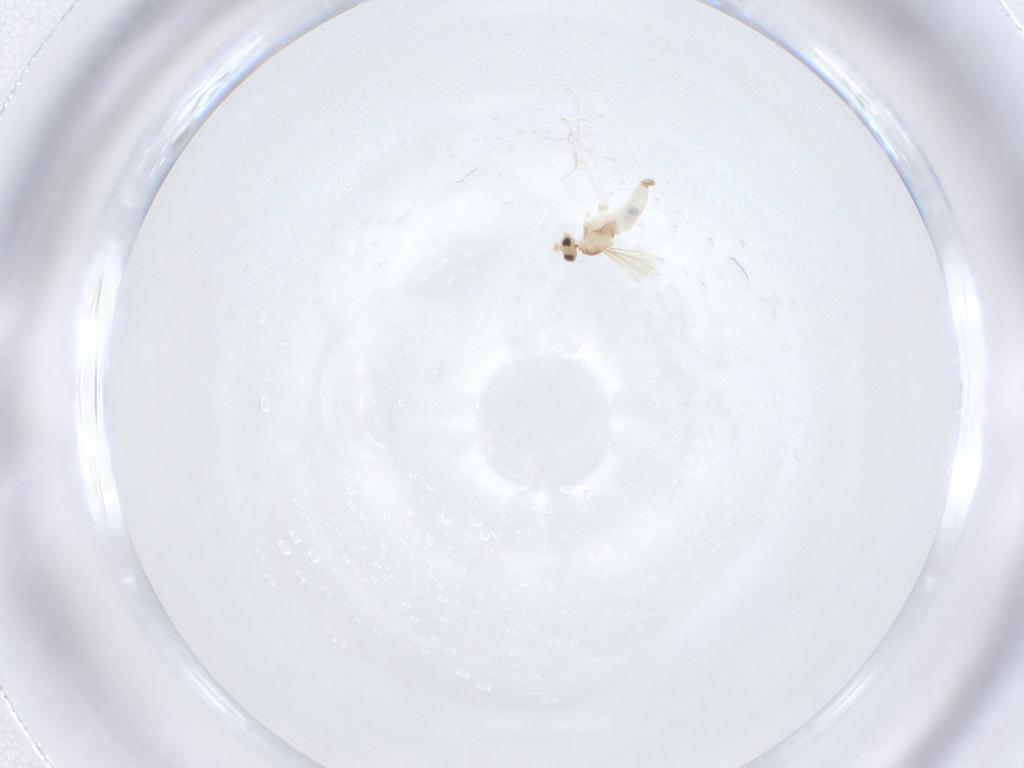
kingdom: Animalia
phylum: Arthropoda
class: Insecta
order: Diptera
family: Cecidomyiidae
